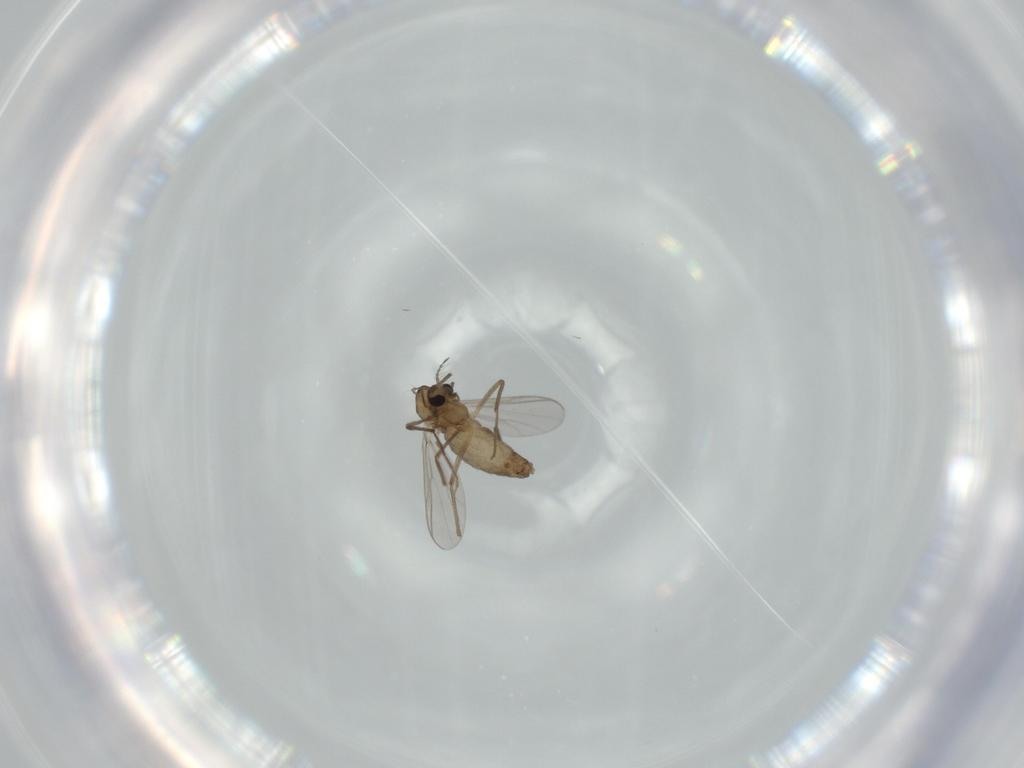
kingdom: Animalia
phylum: Arthropoda
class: Insecta
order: Diptera
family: Chironomidae
